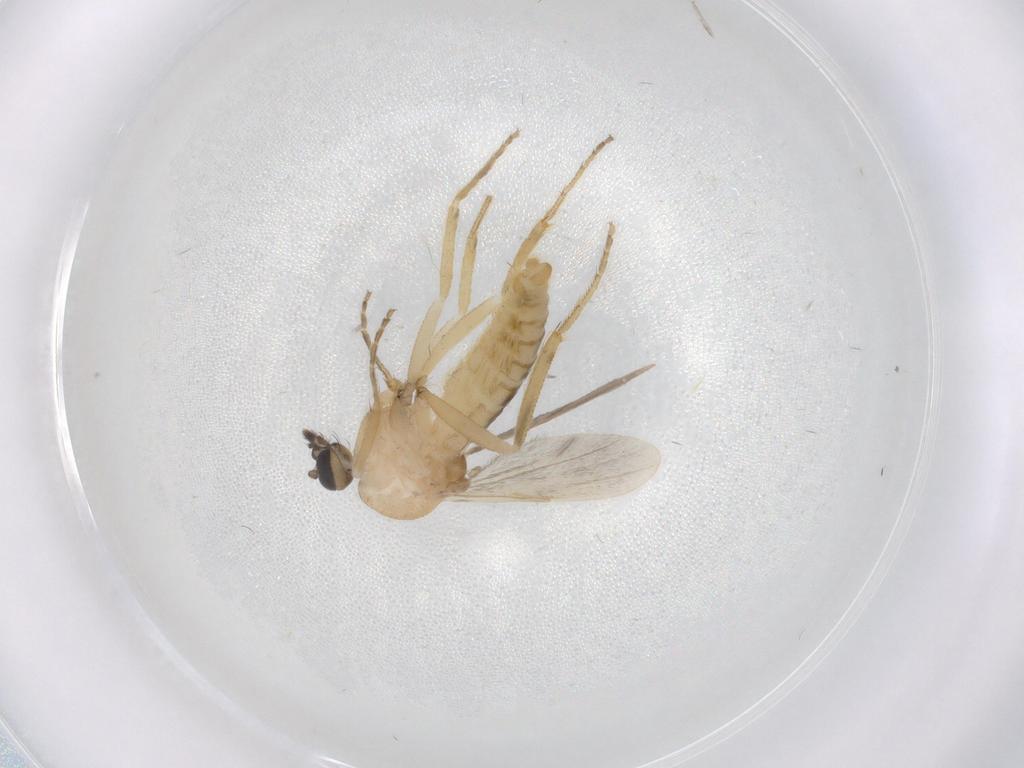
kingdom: Animalia
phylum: Arthropoda
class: Insecta
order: Diptera
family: Ceratopogonidae
